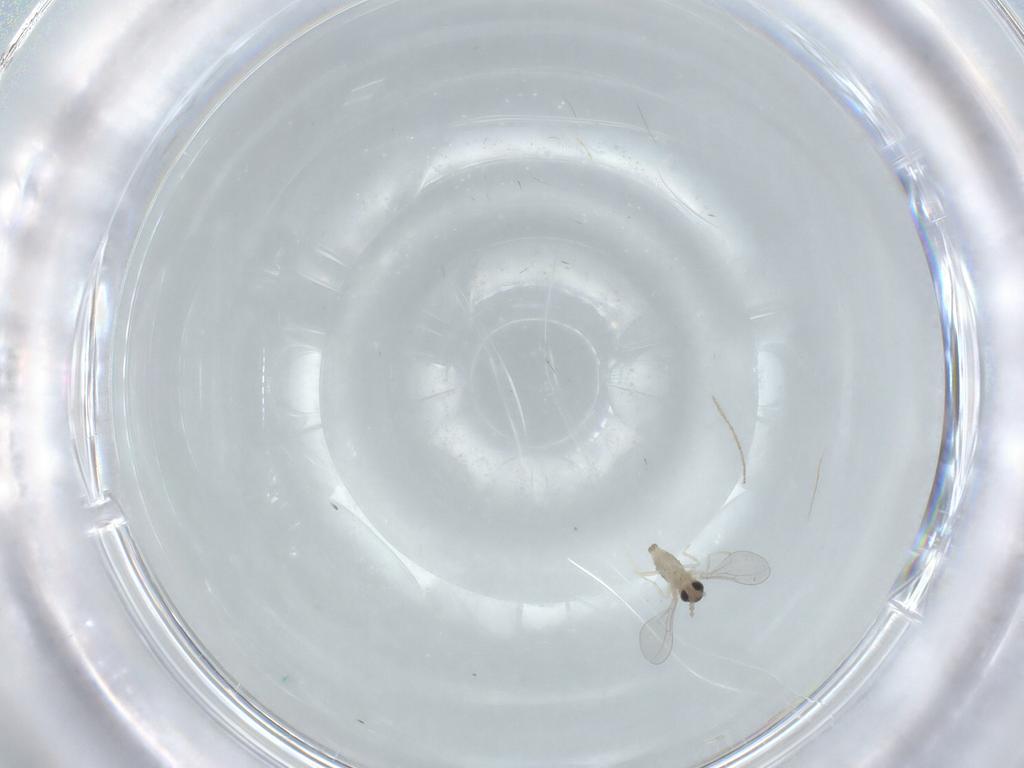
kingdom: Animalia
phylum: Arthropoda
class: Insecta
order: Diptera
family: Cecidomyiidae
